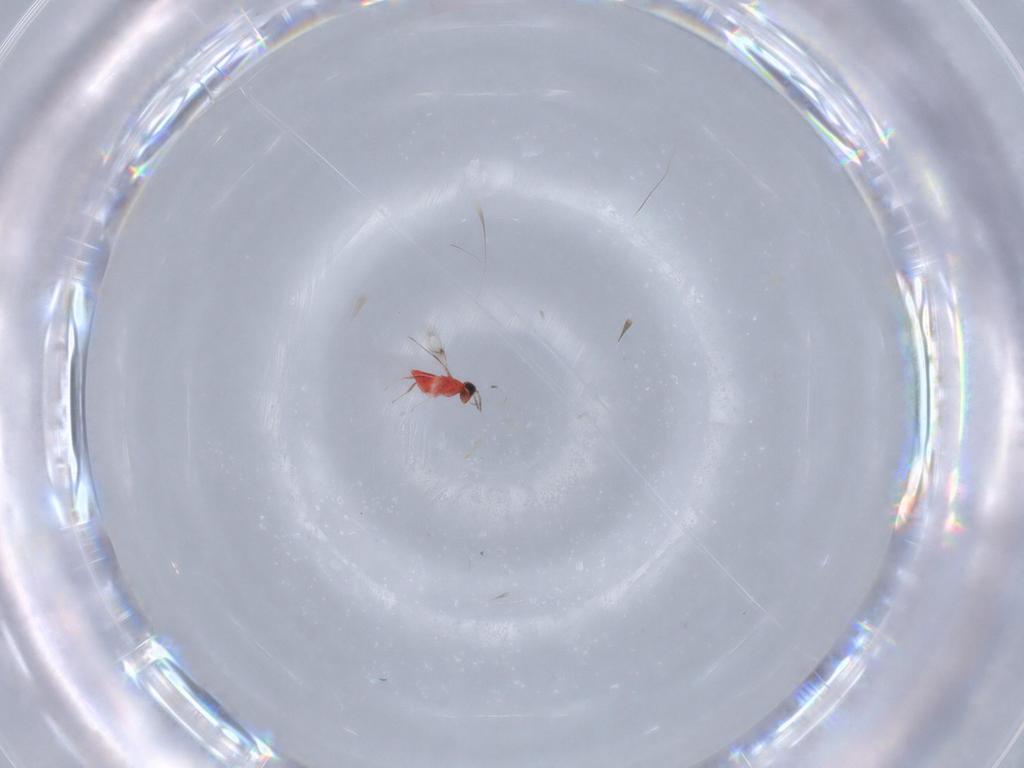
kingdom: Animalia
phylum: Arthropoda
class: Insecta
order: Hymenoptera
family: Trichogrammatidae
